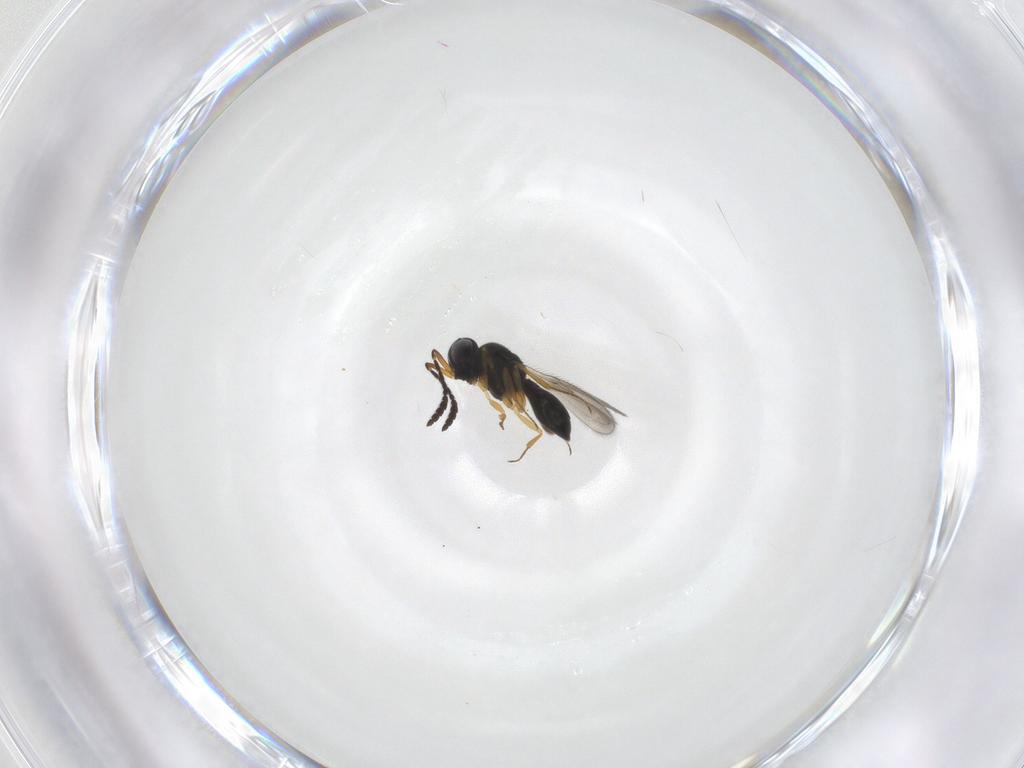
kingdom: Animalia
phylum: Arthropoda
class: Insecta
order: Hymenoptera
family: Scelionidae
